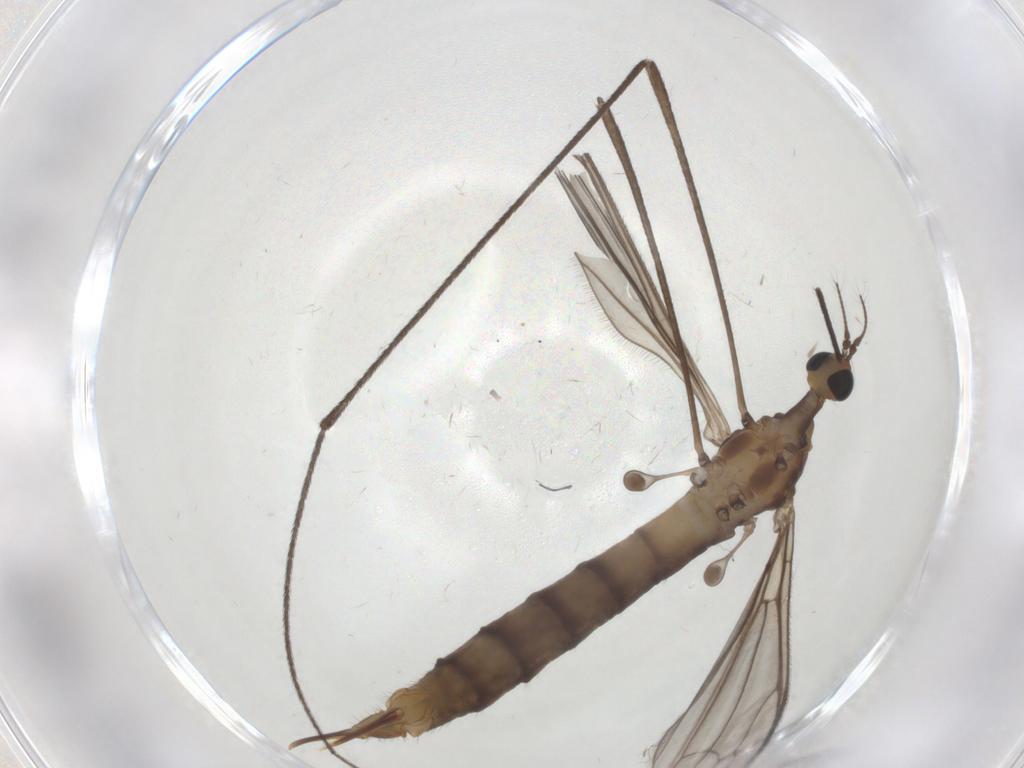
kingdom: Animalia
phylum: Arthropoda
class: Insecta
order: Diptera
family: Limoniidae
